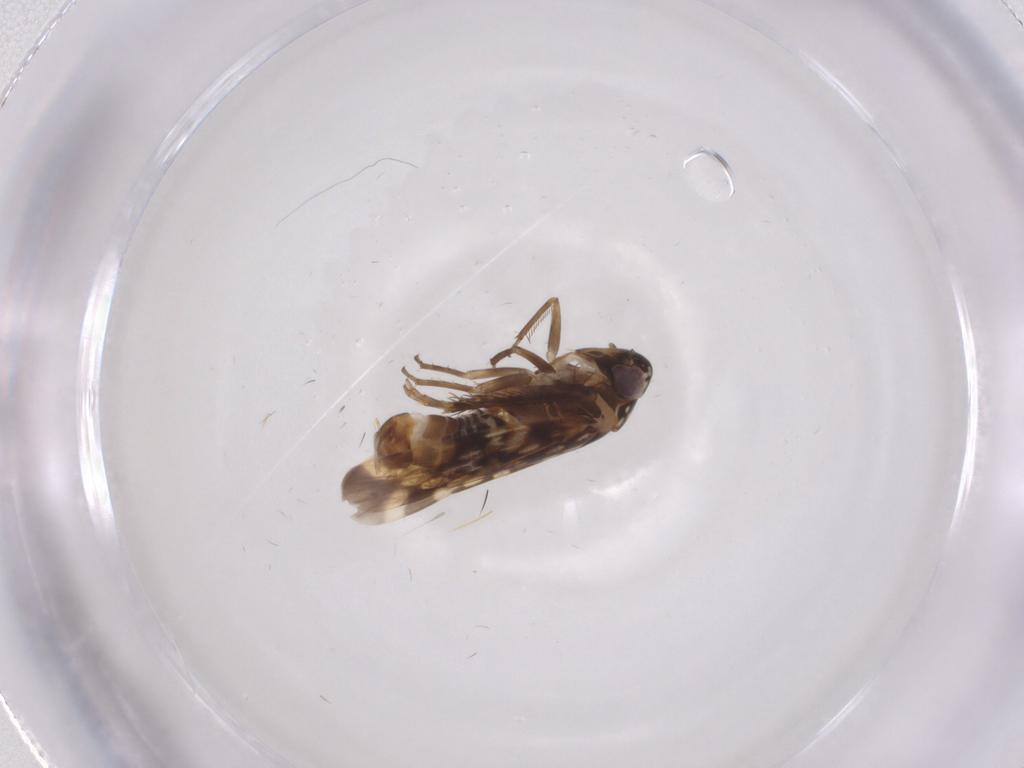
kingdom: Animalia
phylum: Arthropoda
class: Insecta
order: Hemiptera
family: Cicadellidae
